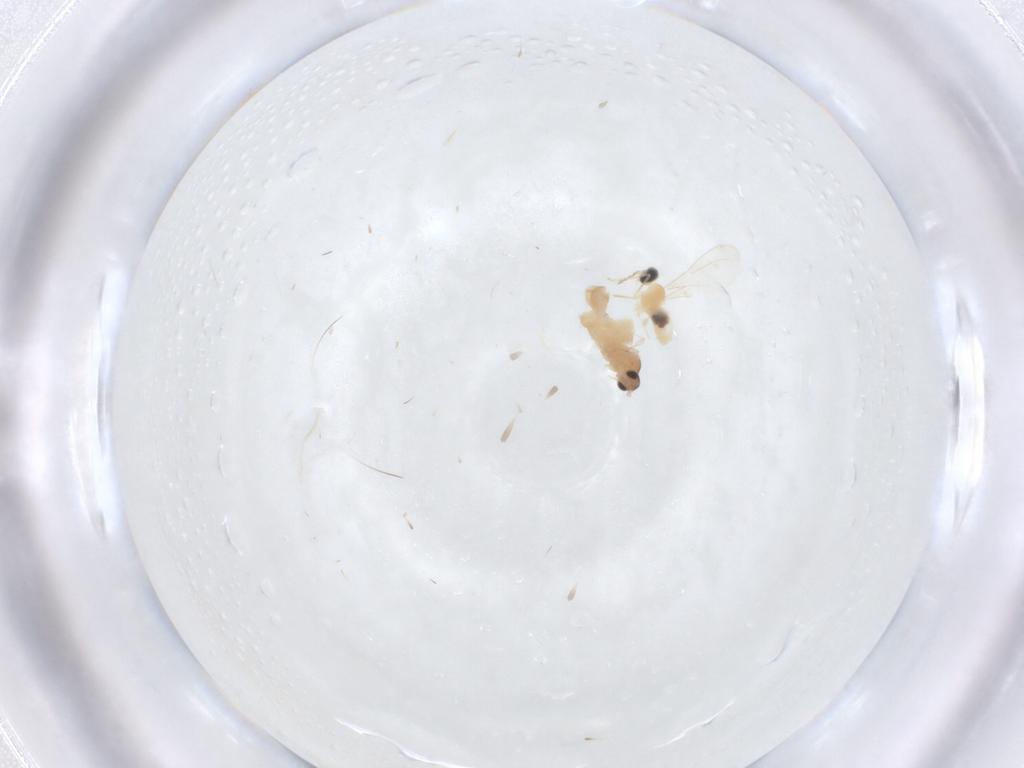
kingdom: Animalia
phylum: Arthropoda
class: Insecta
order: Diptera
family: Cecidomyiidae
